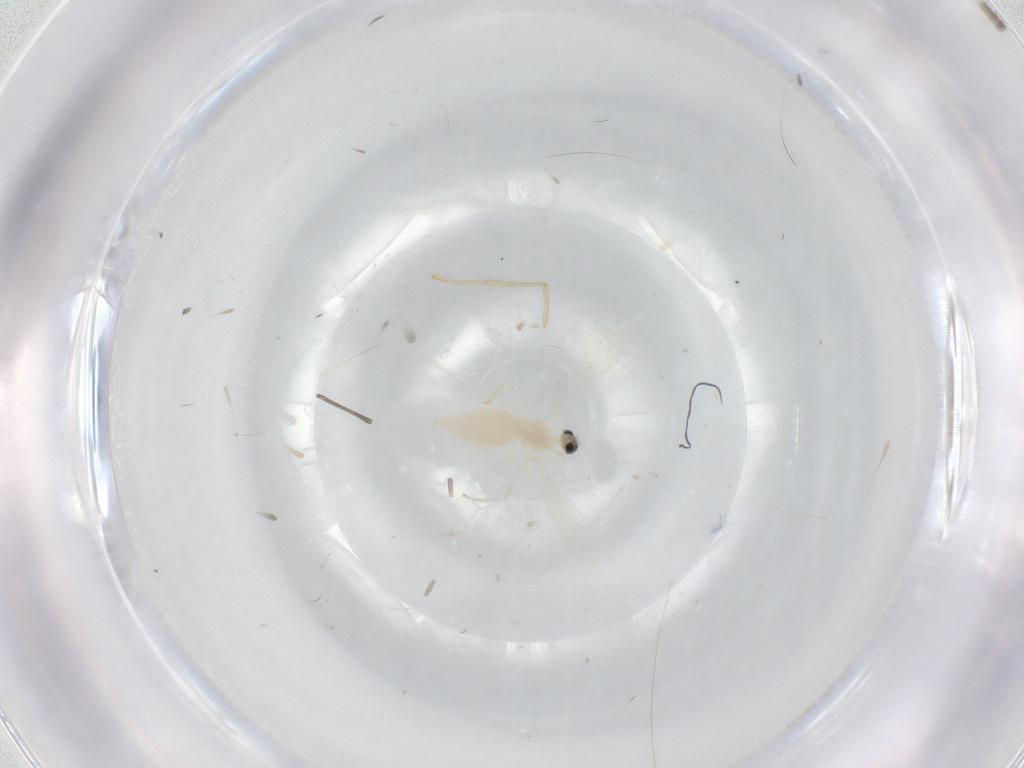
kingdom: Animalia
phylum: Arthropoda
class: Insecta
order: Diptera
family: Cecidomyiidae
